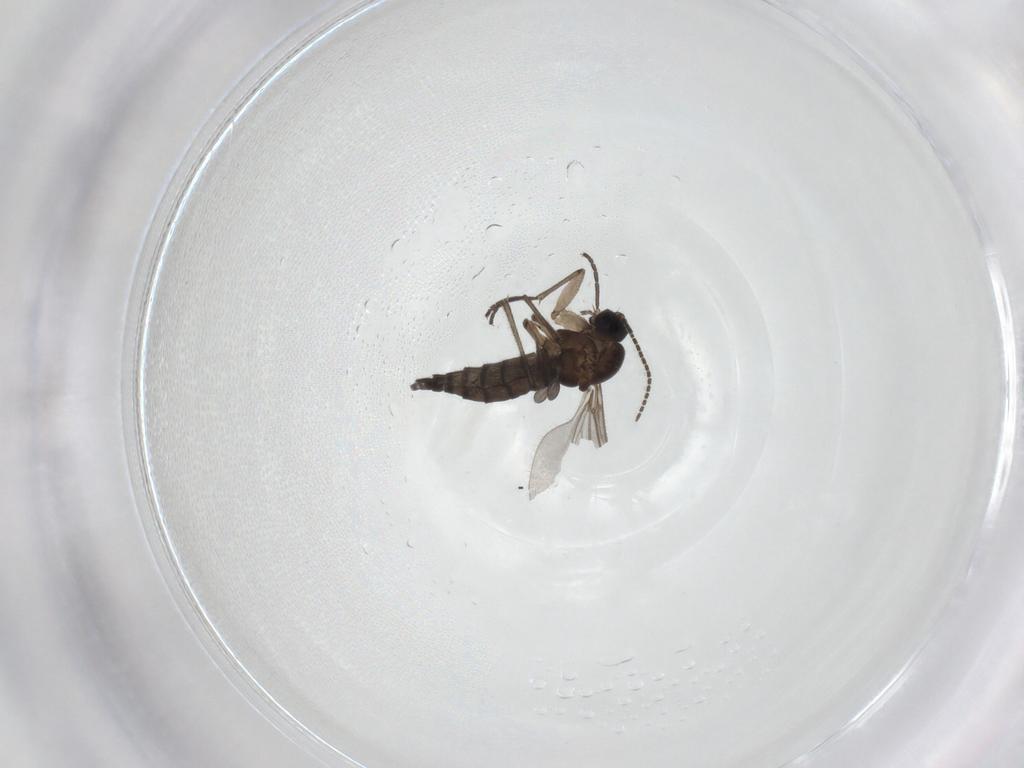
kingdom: Animalia
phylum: Arthropoda
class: Insecta
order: Diptera
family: Sciaridae
